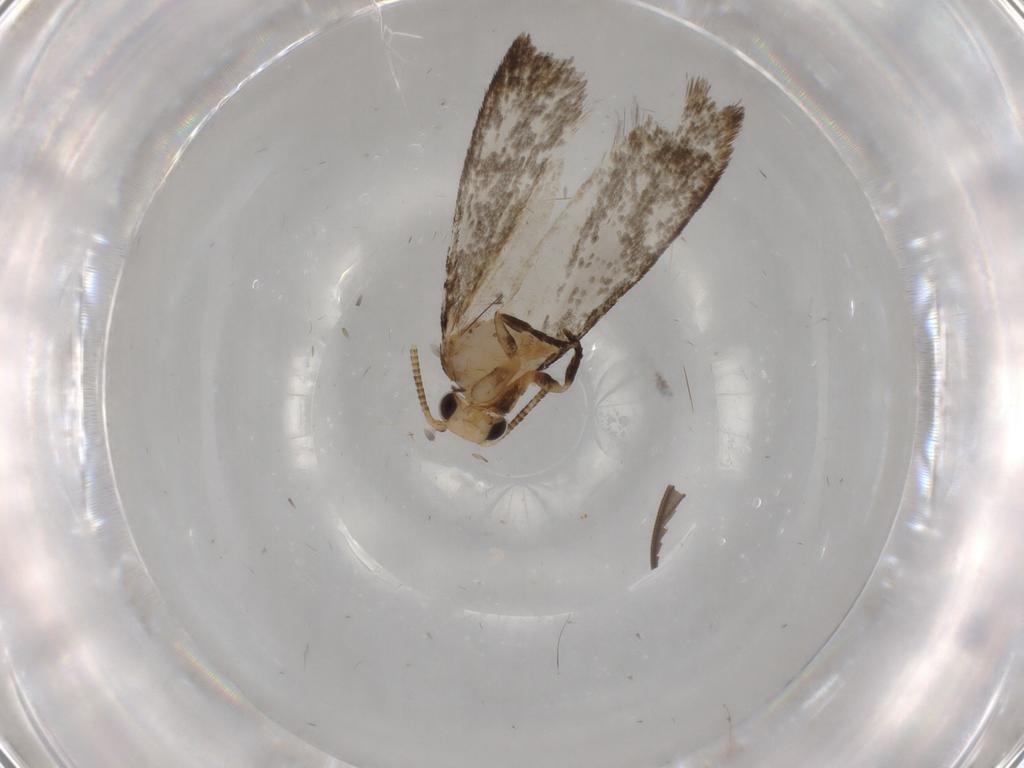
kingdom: Animalia
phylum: Arthropoda
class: Insecta
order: Lepidoptera
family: Tineidae
